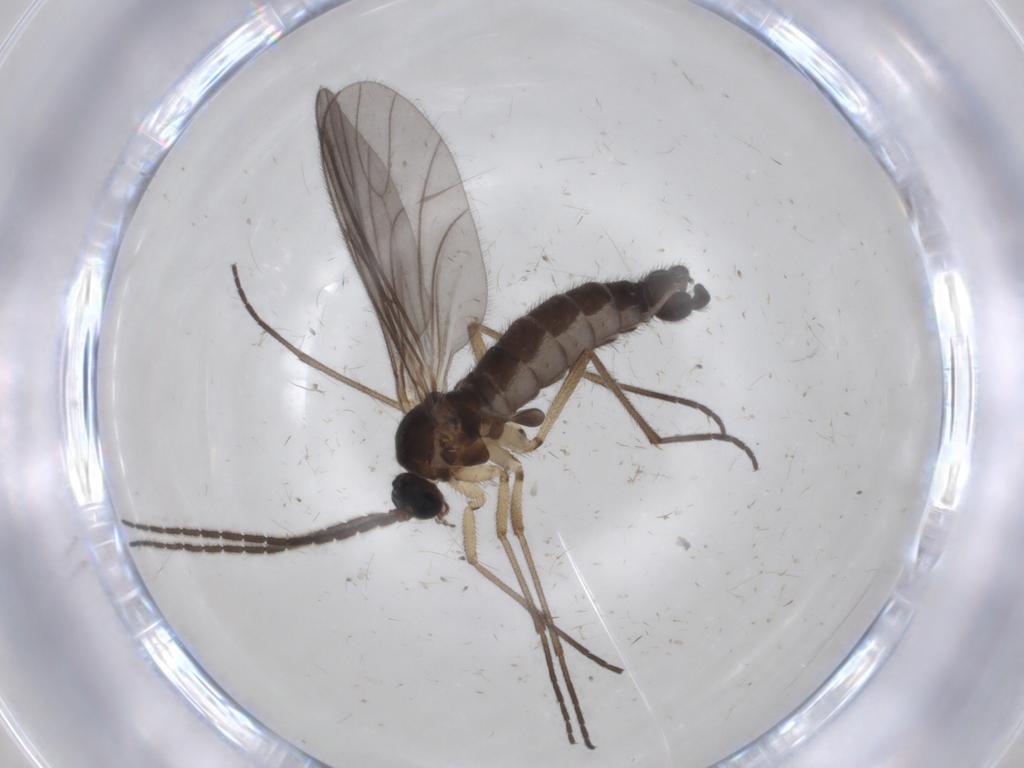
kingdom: Animalia
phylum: Arthropoda
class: Insecta
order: Diptera
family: Sciaridae
